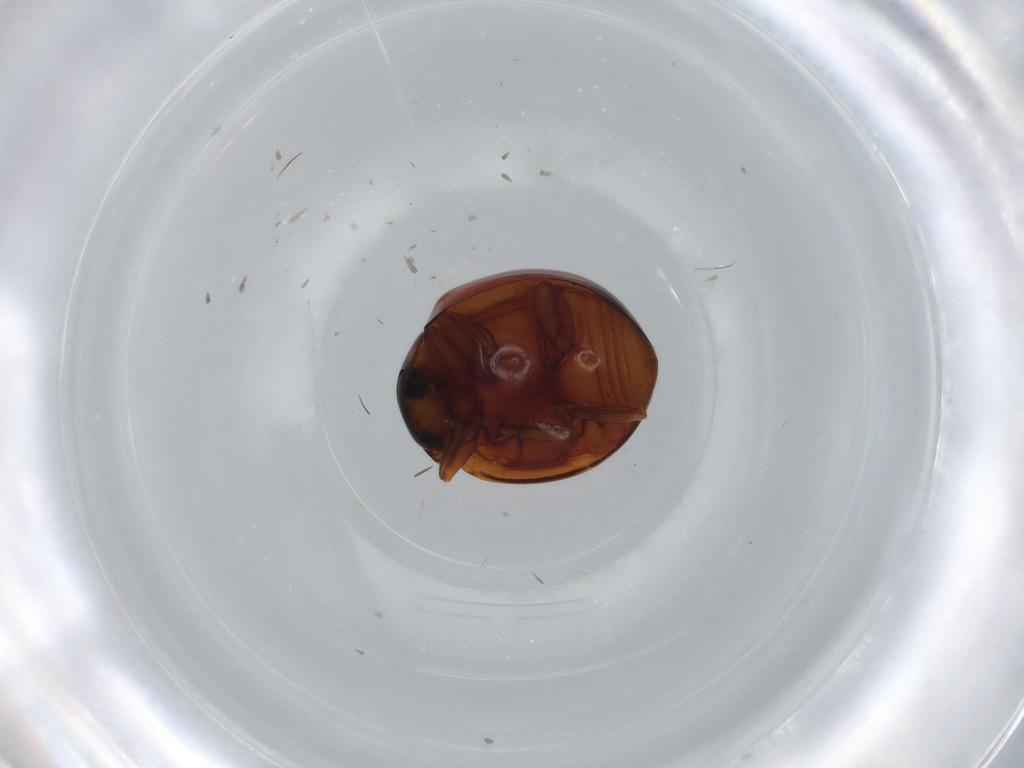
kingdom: Animalia
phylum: Arthropoda
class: Insecta
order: Coleoptera
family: Coccinellidae
